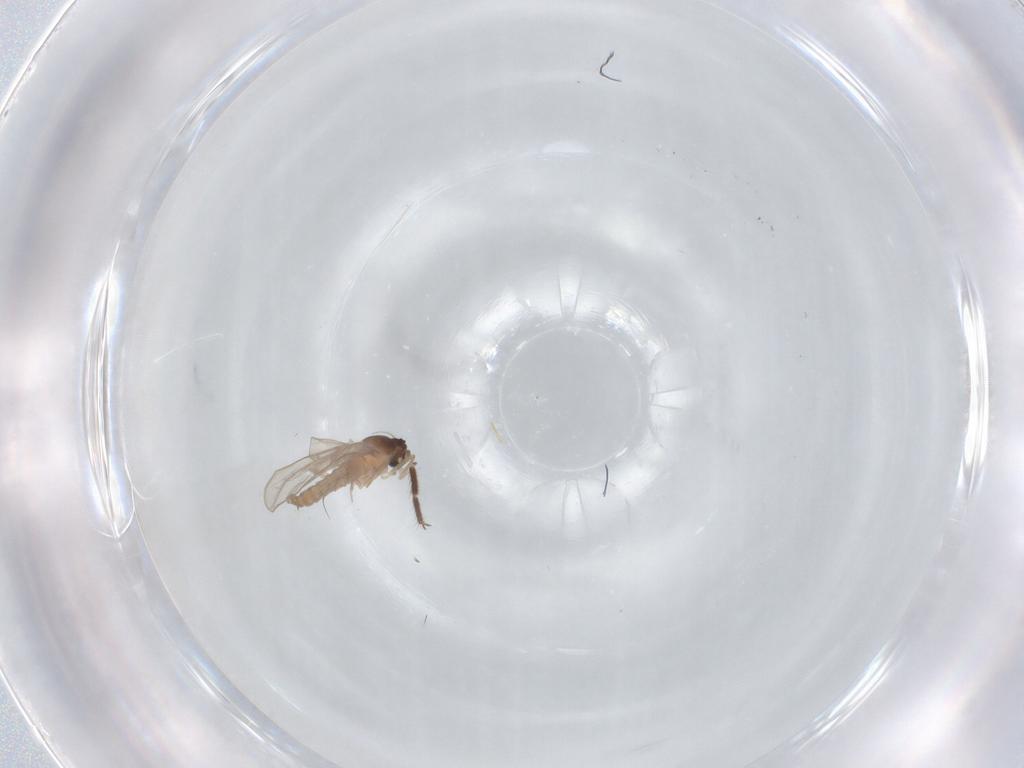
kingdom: Animalia
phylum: Arthropoda
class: Insecta
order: Diptera
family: Cecidomyiidae
